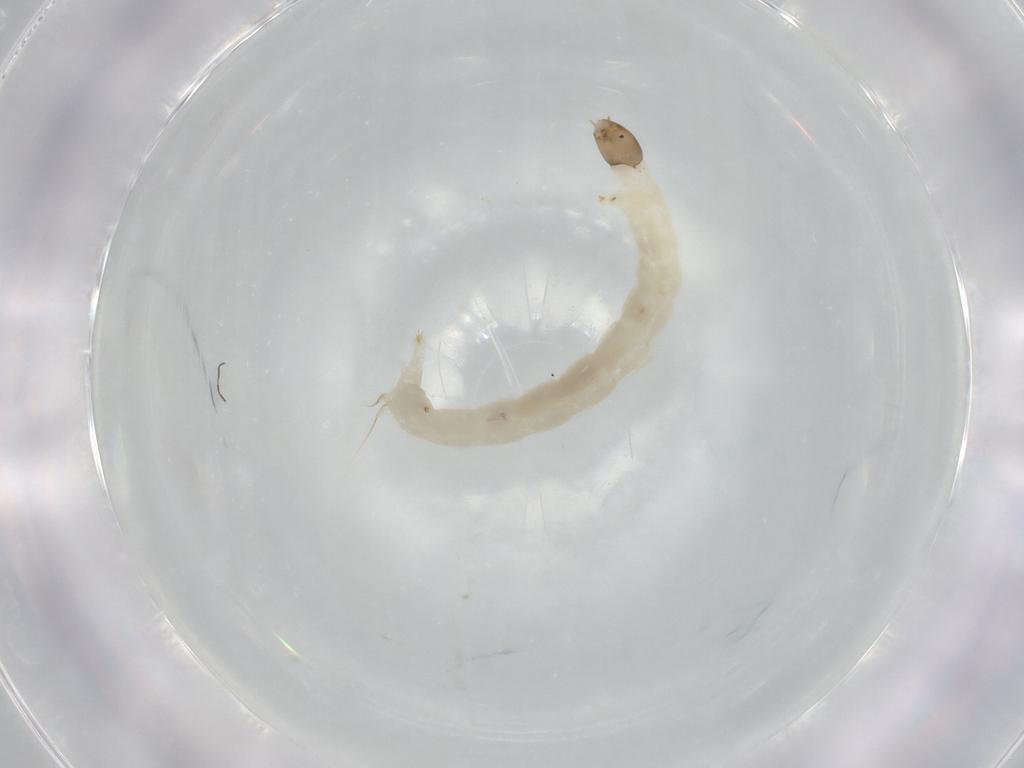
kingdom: Animalia
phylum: Arthropoda
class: Insecta
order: Diptera
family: Chironomidae
